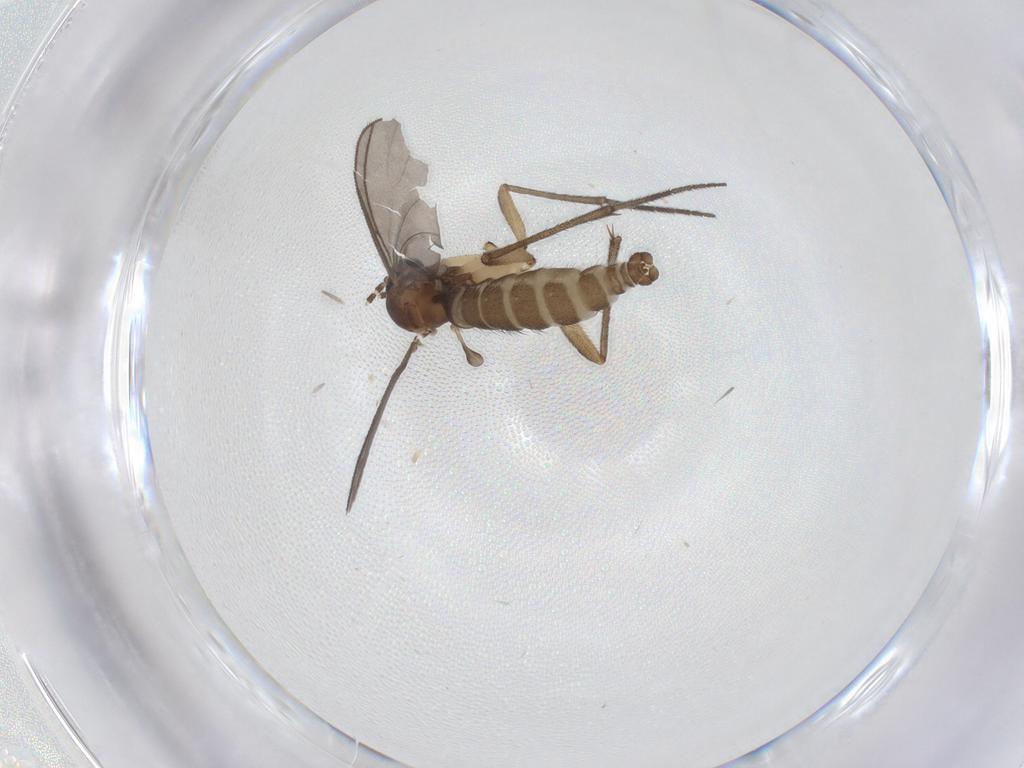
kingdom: Animalia
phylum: Arthropoda
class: Insecta
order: Diptera
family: Sciaridae
